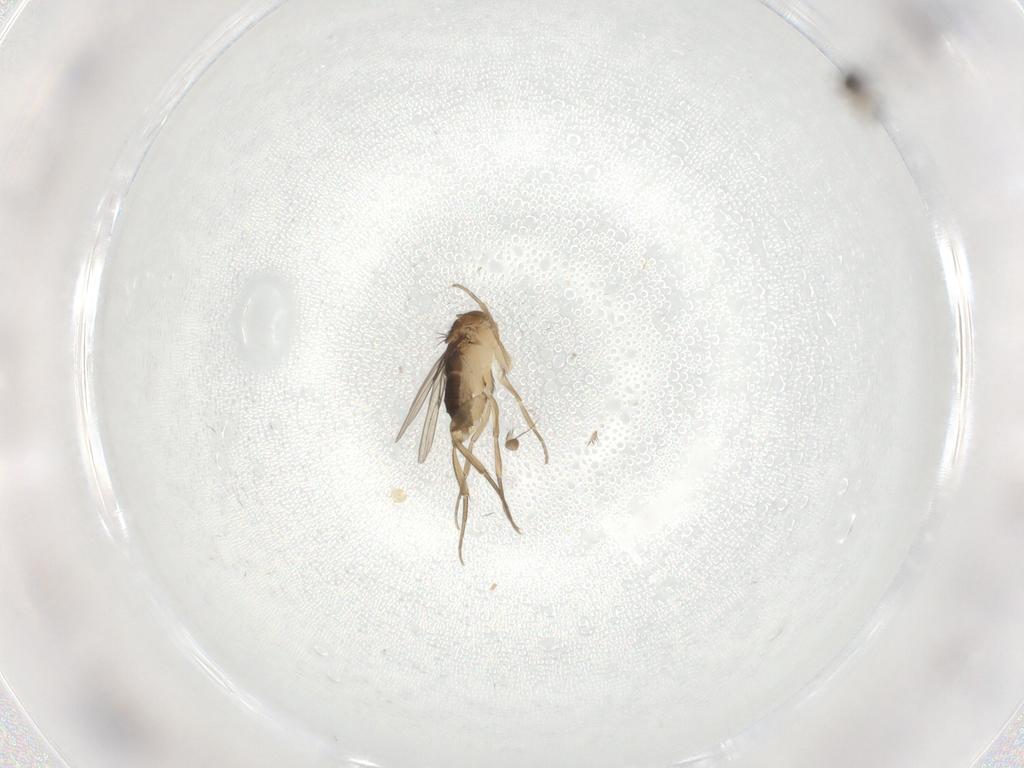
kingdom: Animalia
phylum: Arthropoda
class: Insecta
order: Diptera
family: Phoridae
